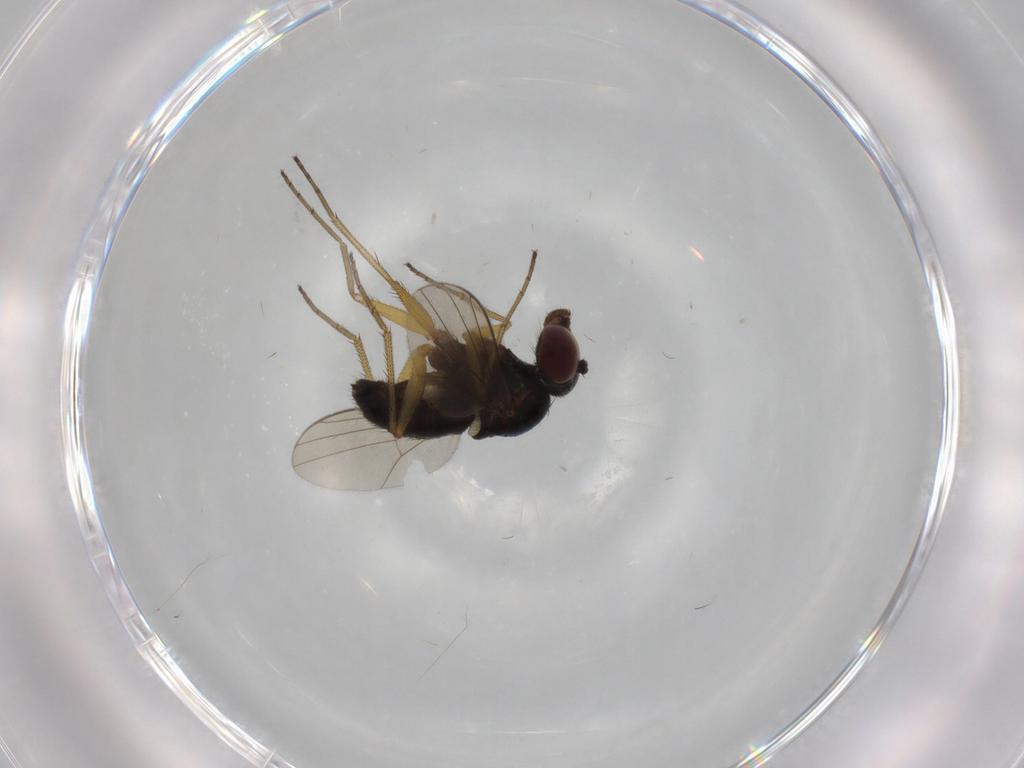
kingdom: Animalia
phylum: Arthropoda
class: Insecta
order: Diptera
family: Dolichopodidae
